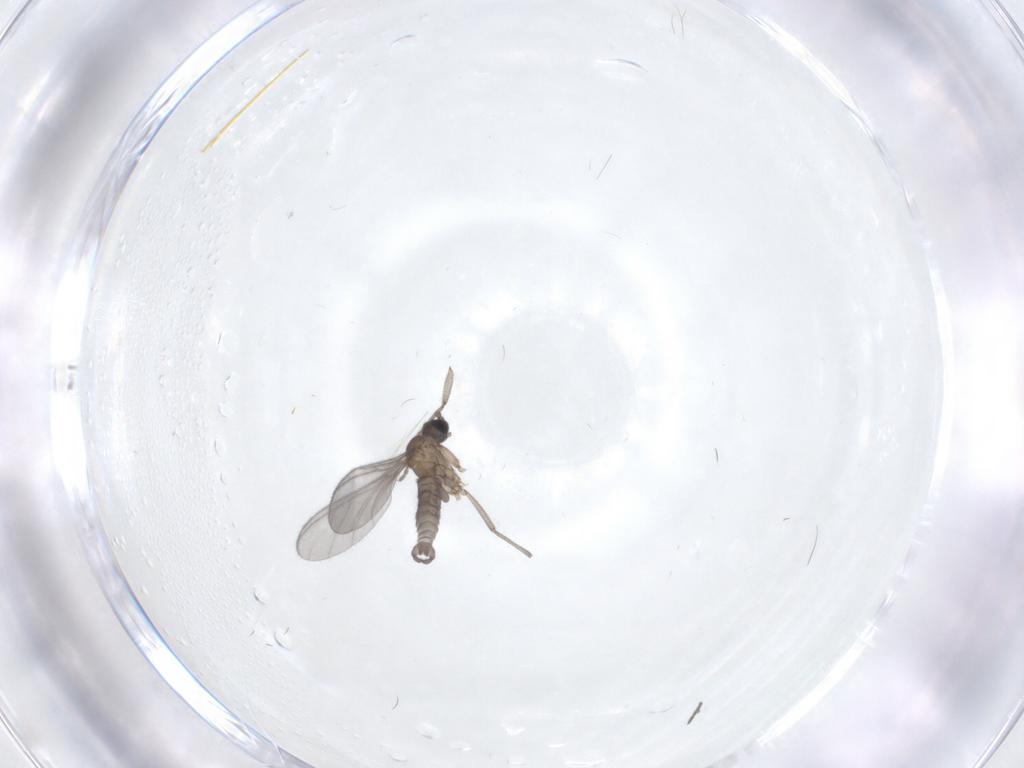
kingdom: Animalia
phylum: Arthropoda
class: Insecta
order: Diptera
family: Sciaridae
